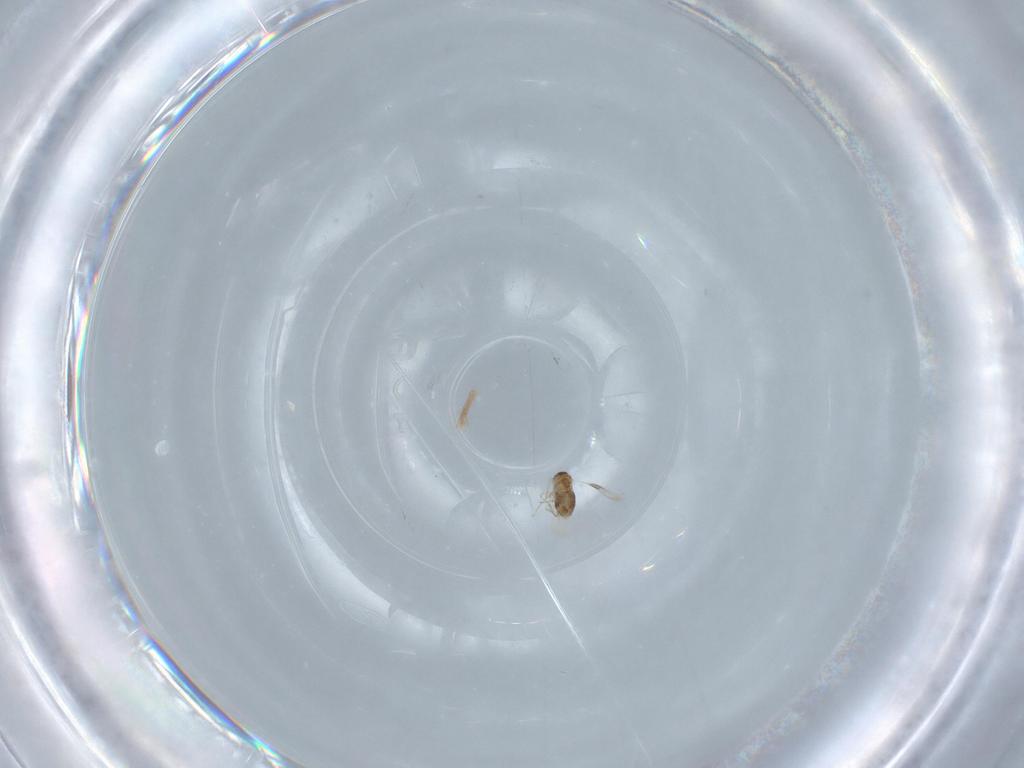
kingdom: Animalia
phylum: Arthropoda
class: Insecta
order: Hymenoptera
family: Aphelinidae
